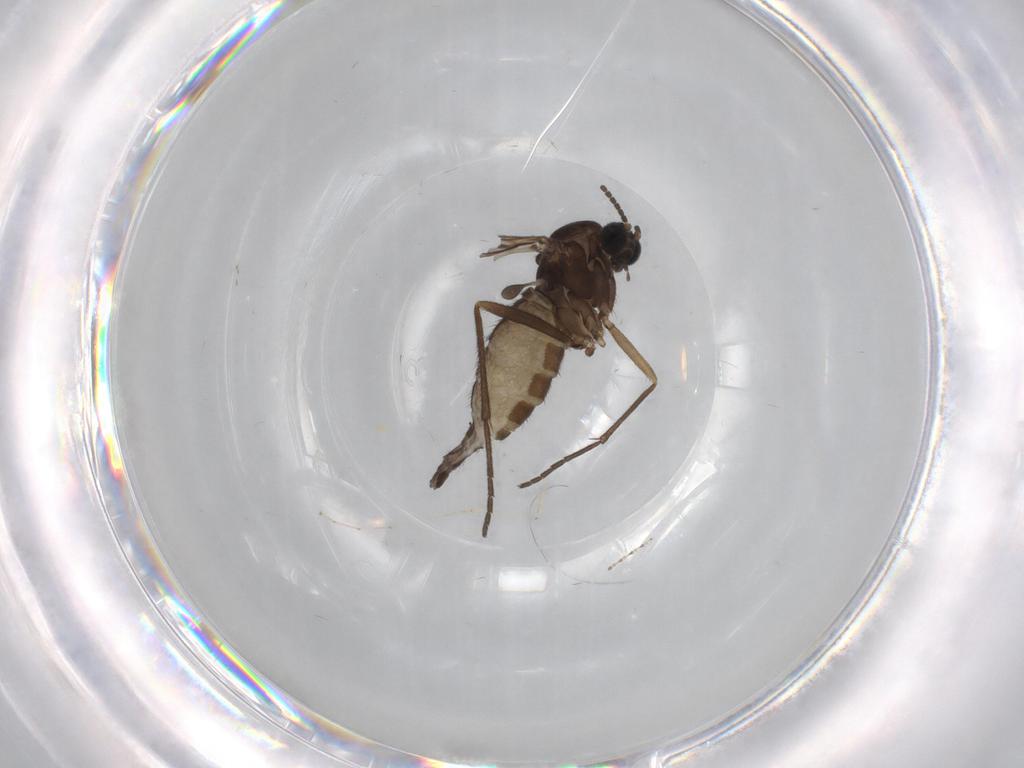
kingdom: Animalia
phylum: Arthropoda
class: Insecta
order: Diptera
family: Sciaridae
